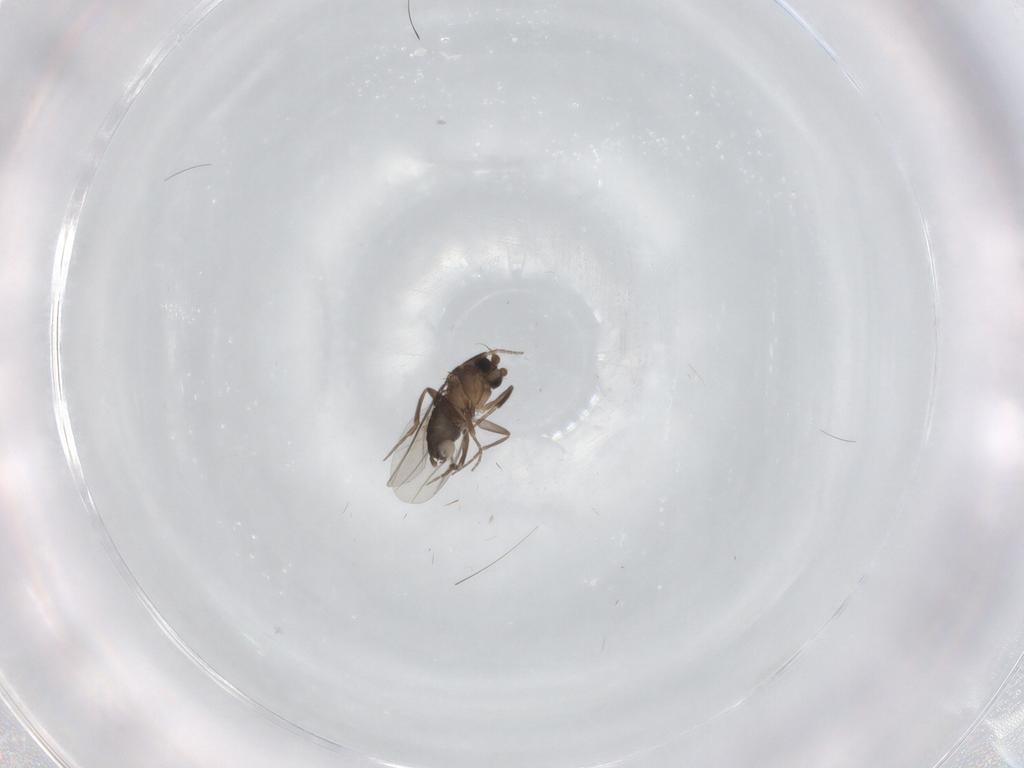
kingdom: Animalia
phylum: Arthropoda
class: Insecta
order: Diptera
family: Phoridae
